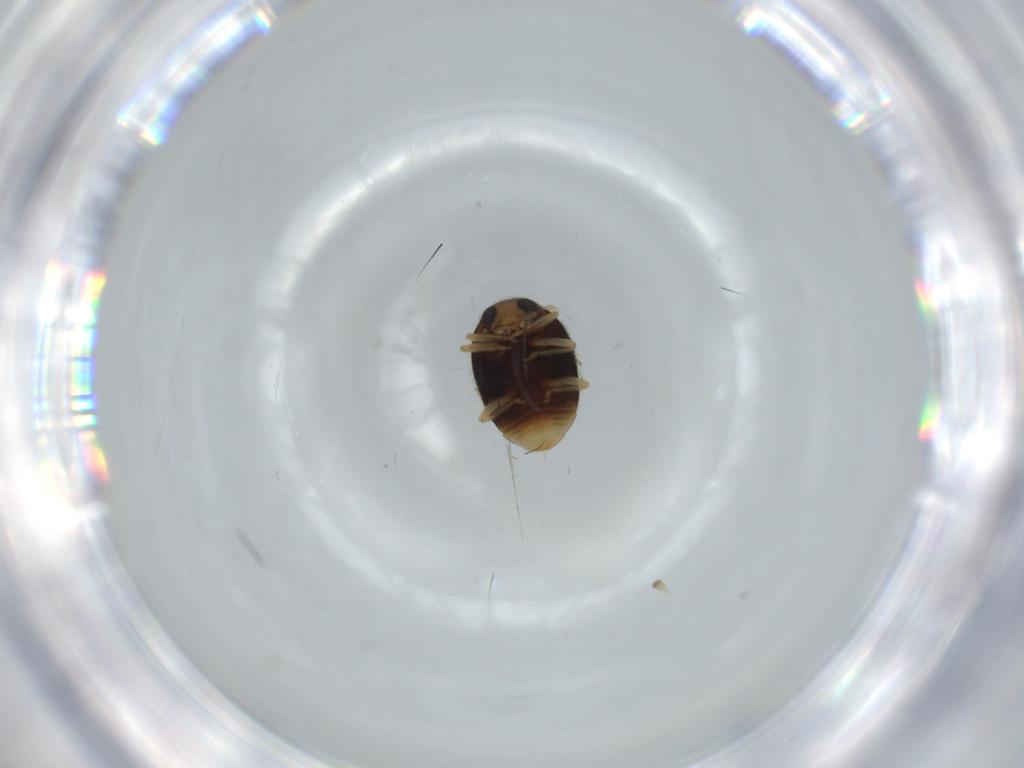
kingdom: Animalia
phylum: Arthropoda
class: Insecta
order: Coleoptera
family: Coccinellidae
